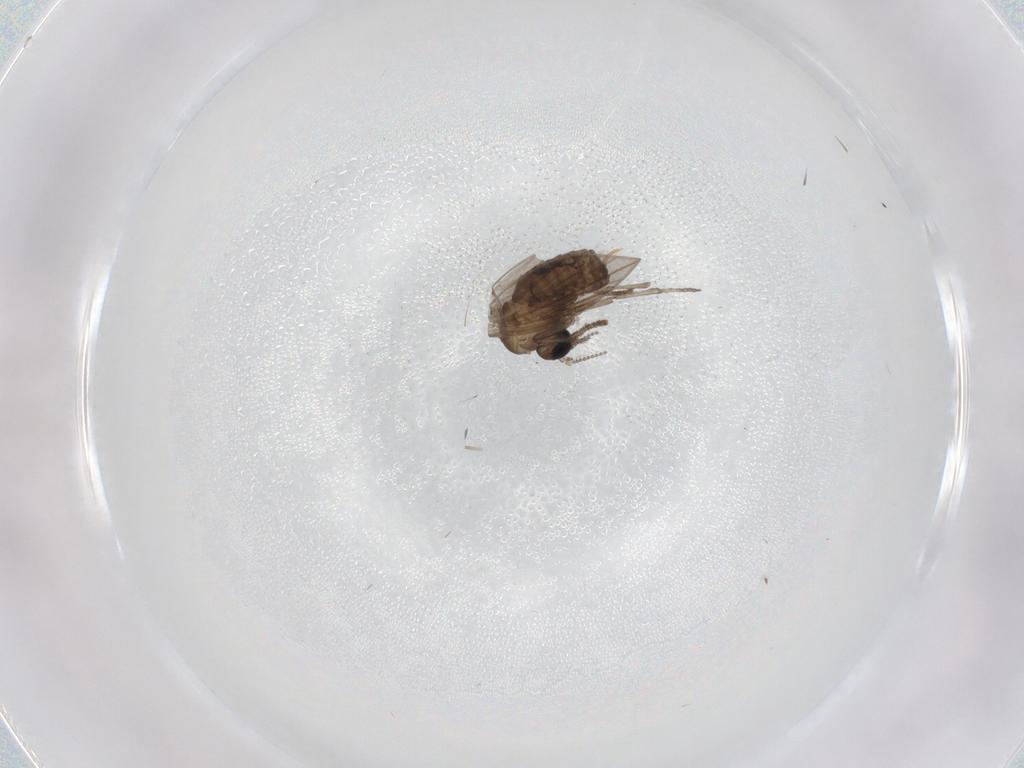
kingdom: Animalia
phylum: Arthropoda
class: Insecta
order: Diptera
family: Psychodidae
